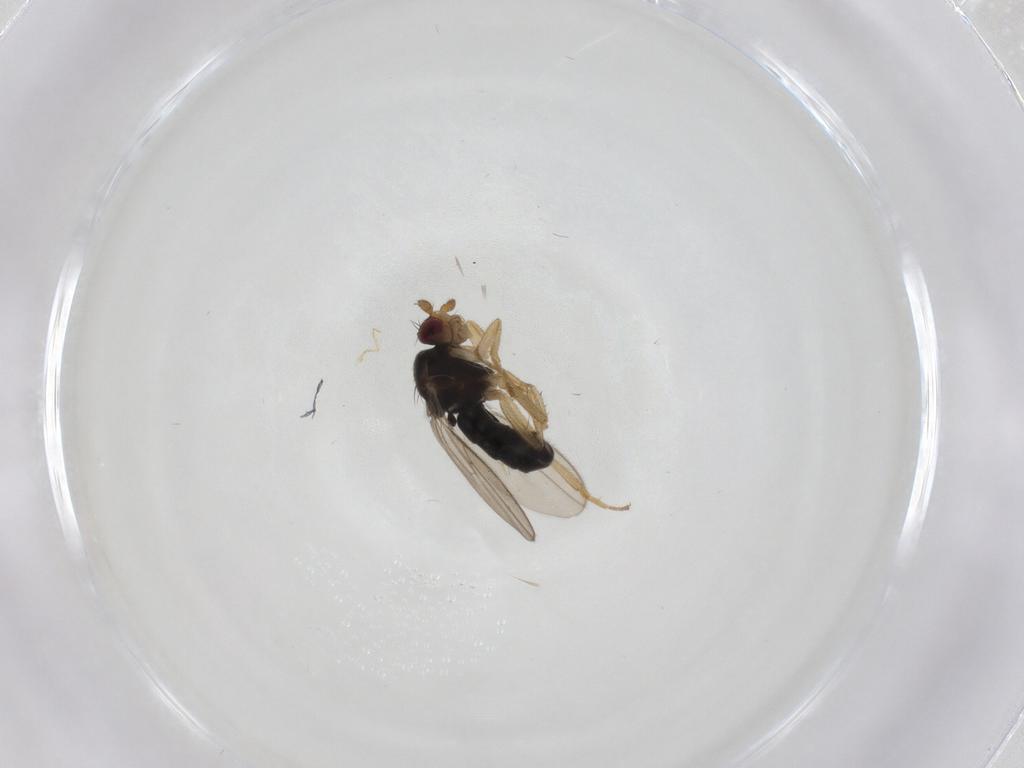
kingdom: Animalia
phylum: Arthropoda
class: Insecta
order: Diptera
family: Sphaeroceridae
